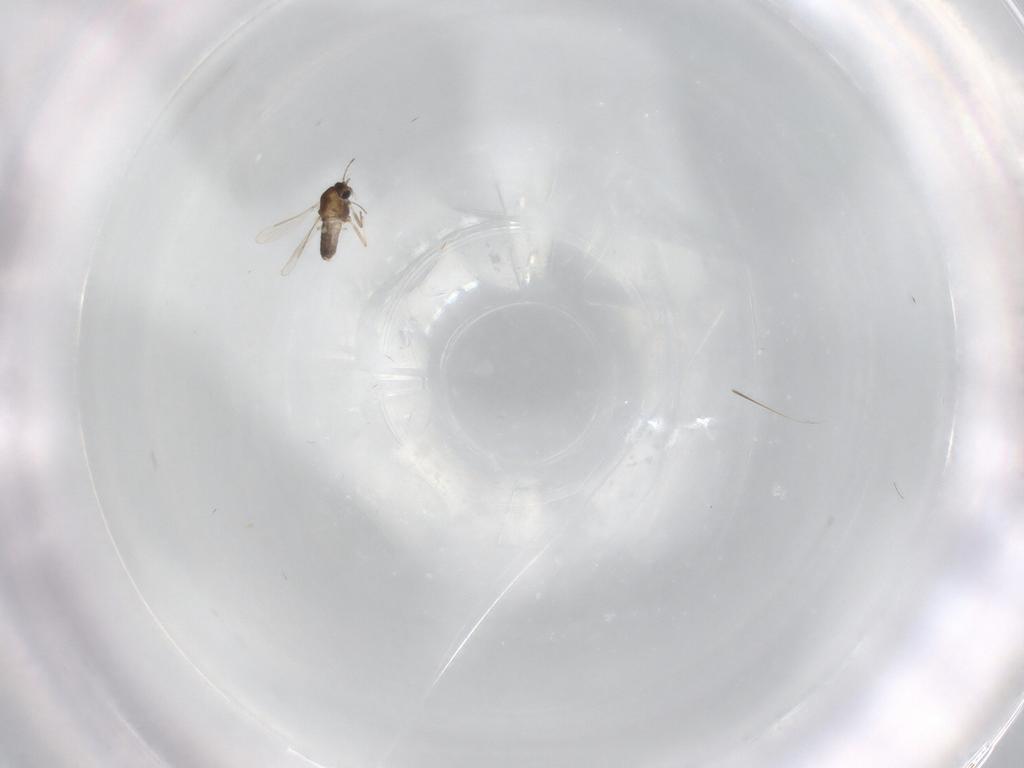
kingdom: Animalia
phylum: Arthropoda
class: Insecta
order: Diptera
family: Chironomidae
